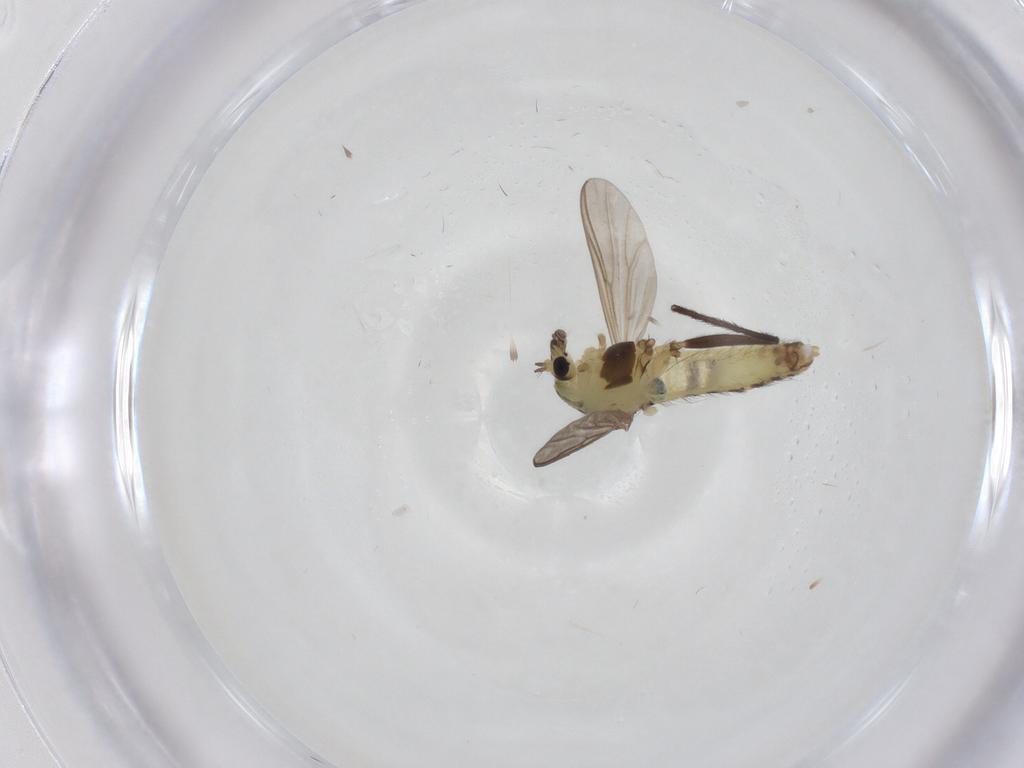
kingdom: Animalia
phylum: Arthropoda
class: Insecta
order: Diptera
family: Chironomidae
